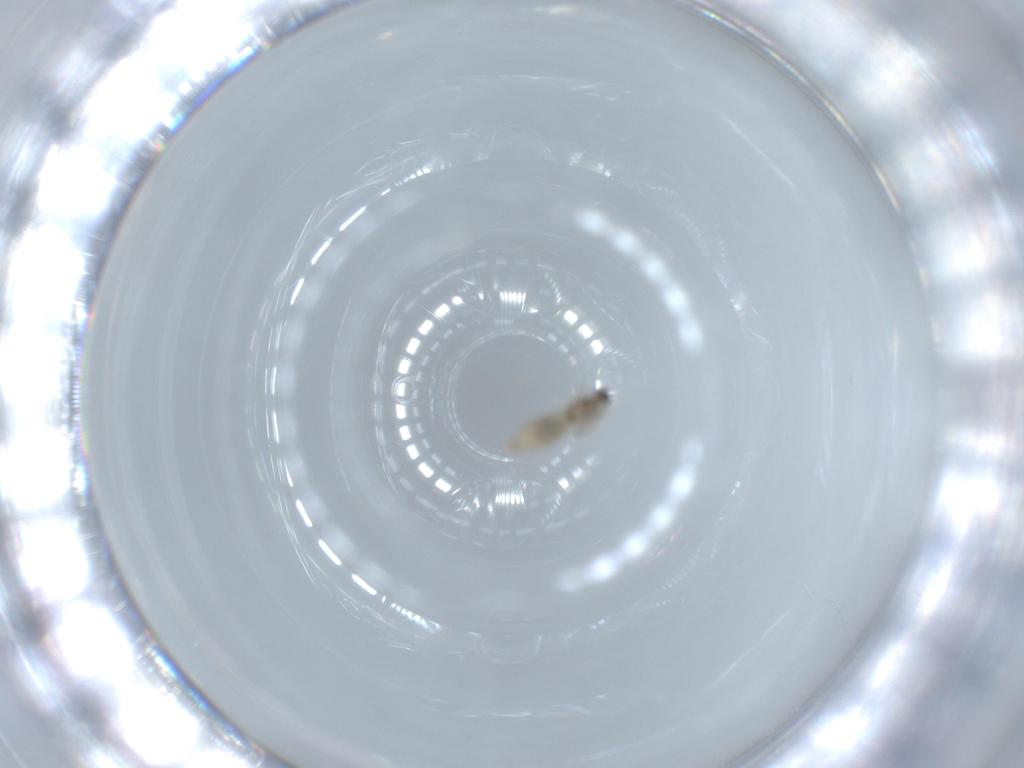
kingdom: Animalia
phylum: Arthropoda
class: Insecta
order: Diptera
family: Cecidomyiidae
